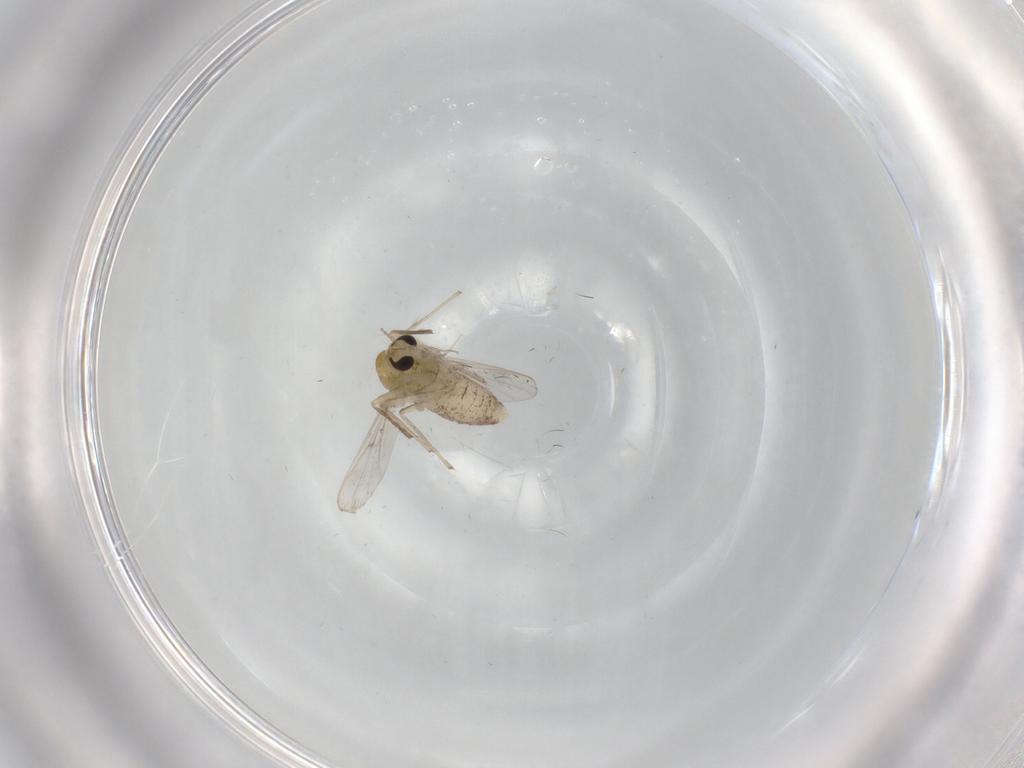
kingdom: Animalia
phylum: Arthropoda
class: Insecta
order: Diptera
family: Chironomidae
